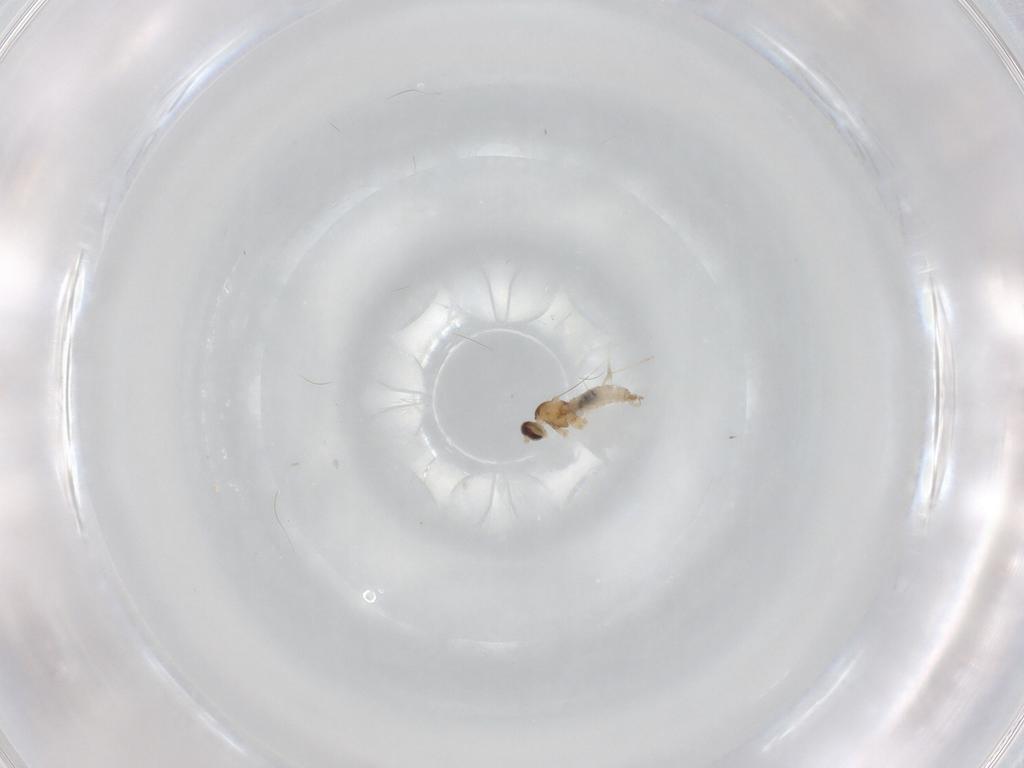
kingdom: Animalia
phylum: Arthropoda
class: Insecta
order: Diptera
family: Cecidomyiidae
